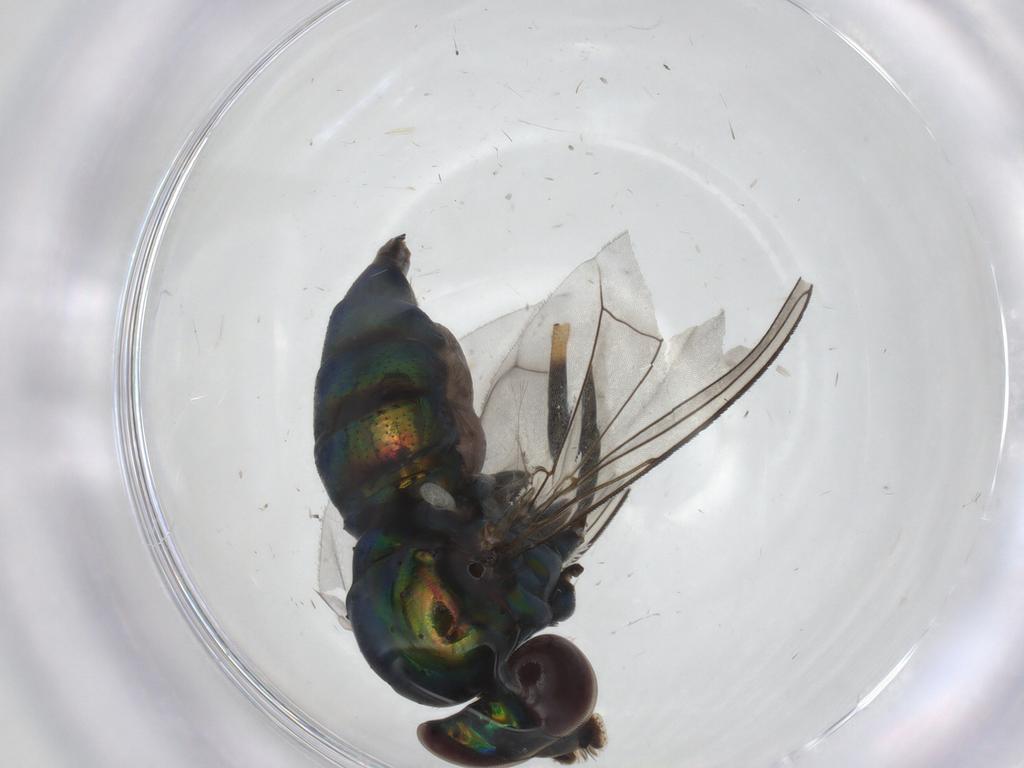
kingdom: Animalia
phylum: Arthropoda
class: Insecta
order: Diptera
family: Dolichopodidae
